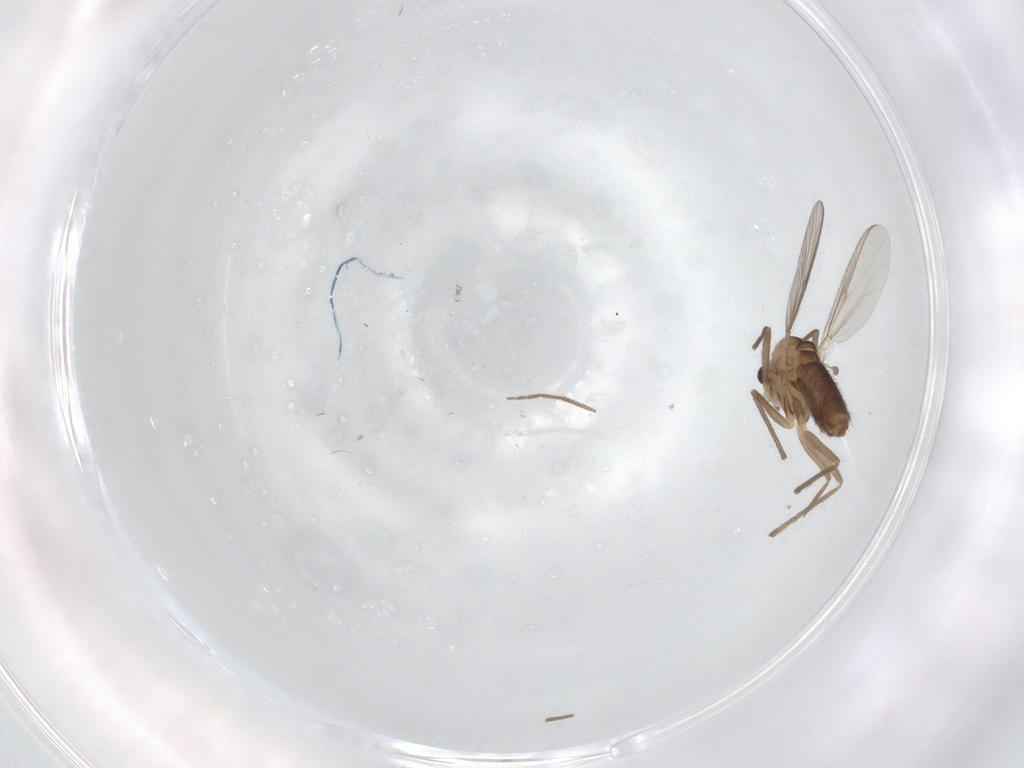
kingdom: Animalia
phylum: Arthropoda
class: Insecta
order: Diptera
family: Chironomidae
